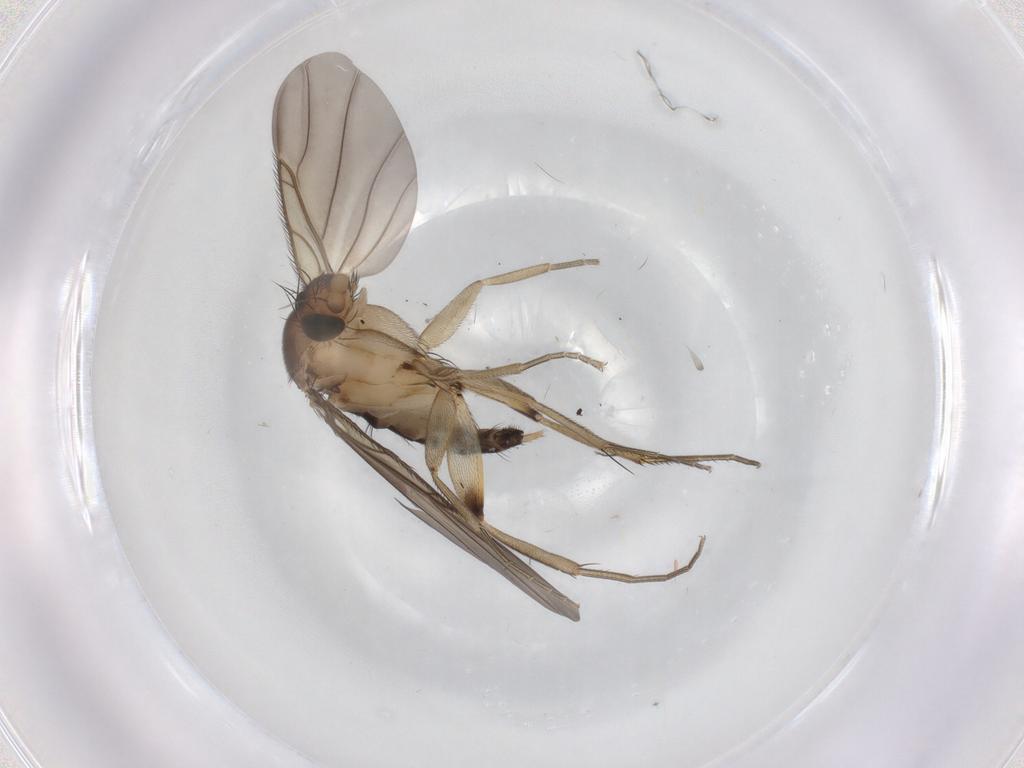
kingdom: Animalia
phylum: Arthropoda
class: Insecta
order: Diptera
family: Phoridae
